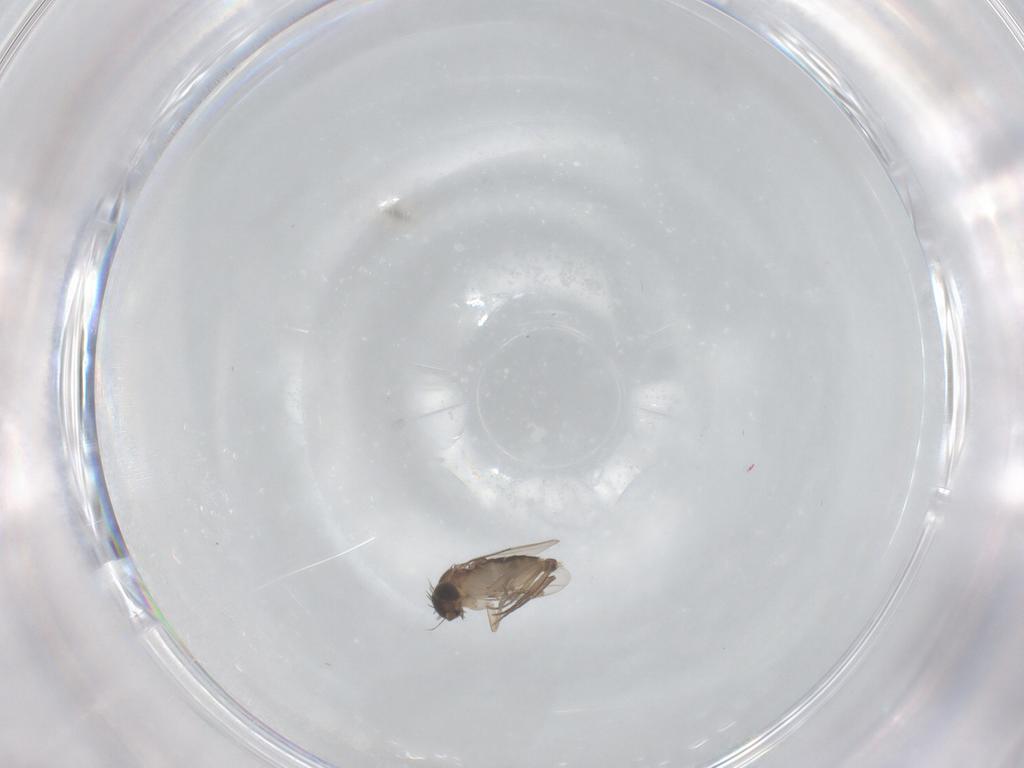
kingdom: Animalia
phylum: Arthropoda
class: Insecta
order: Diptera
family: Phoridae
